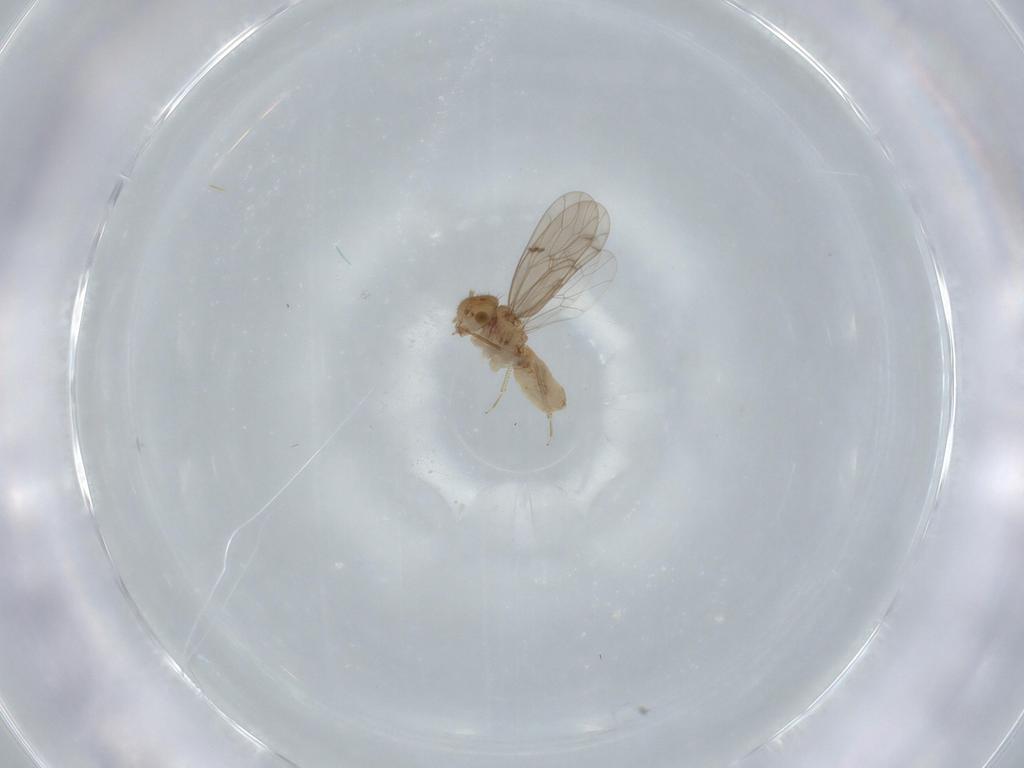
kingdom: Animalia
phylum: Arthropoda
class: Insecta
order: Psocodea
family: Ectopsocidae
